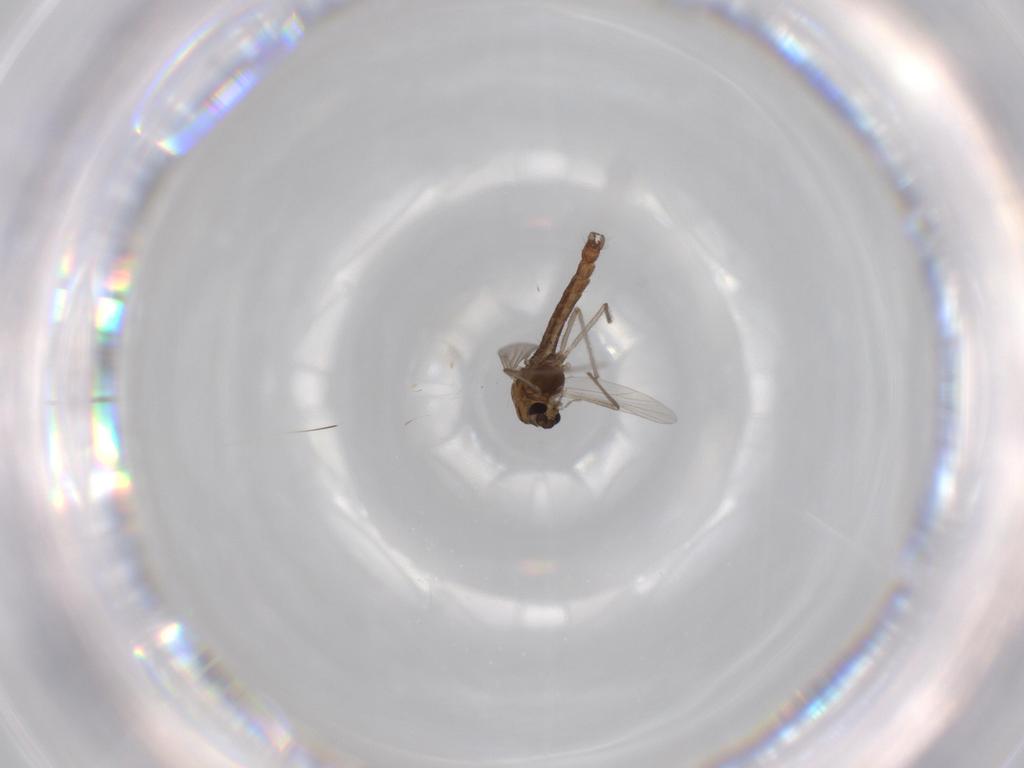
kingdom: Animalia
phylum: Arthropoda
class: Insecta
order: Diptera
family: Chironomidae
